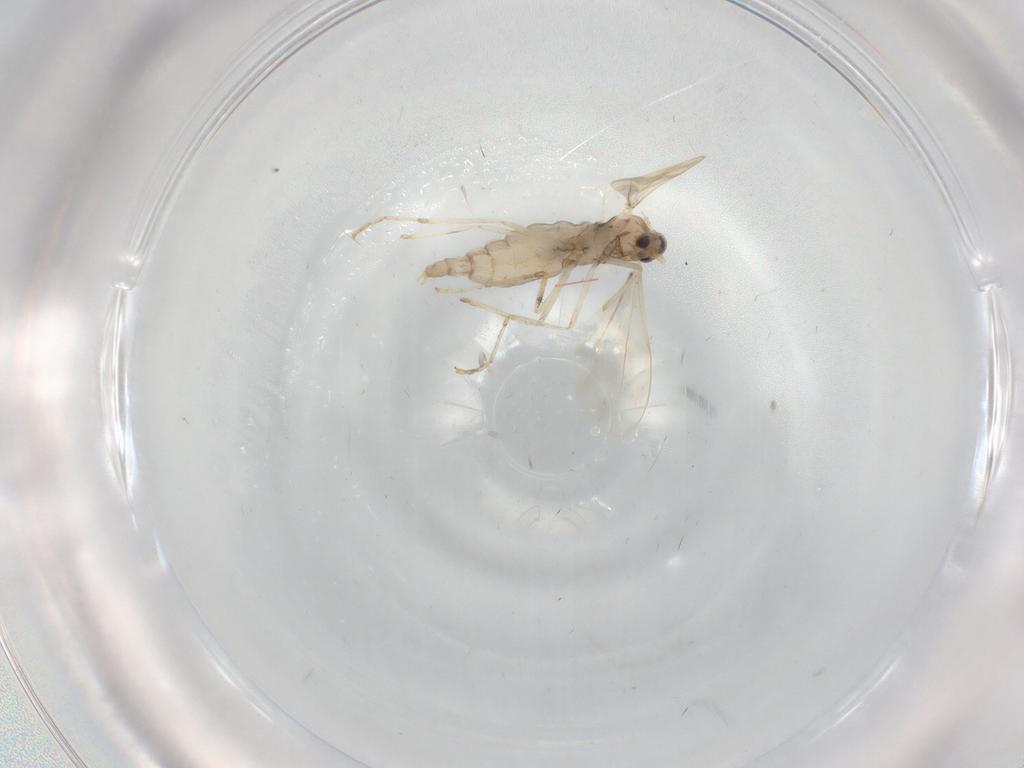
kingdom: Animalia
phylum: Arthropoda
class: Insecta
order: Diptera
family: Cecidomyiidae
